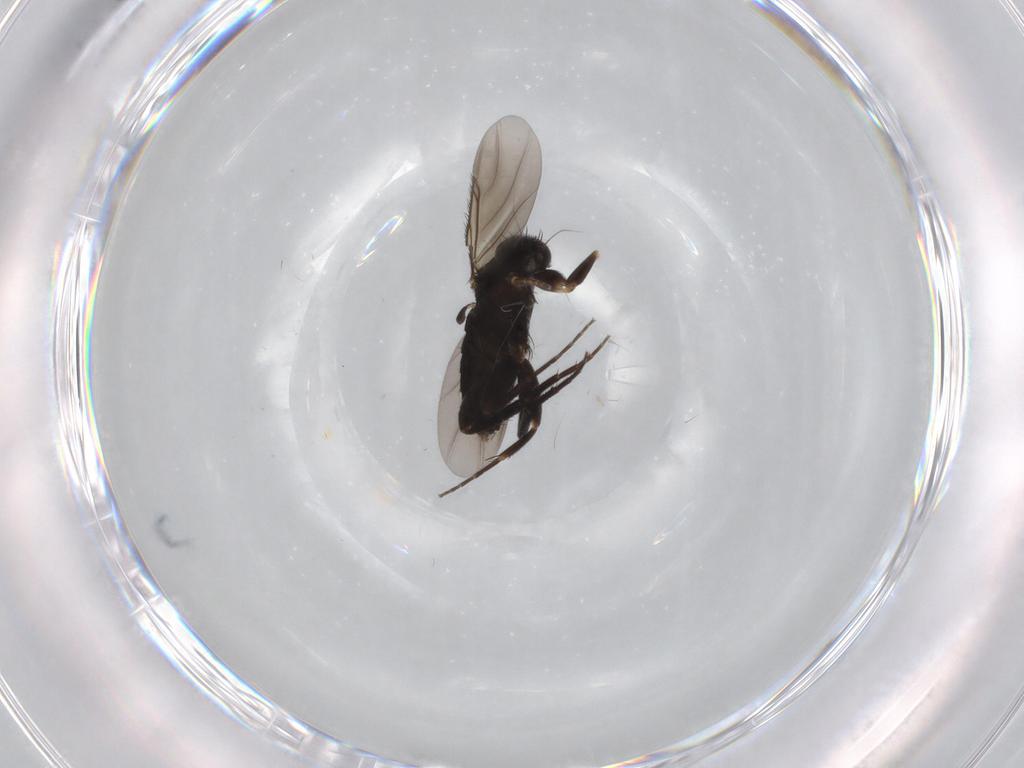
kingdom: Animalia
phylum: Arthropoda
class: Insecta
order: Diptera
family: Phoridae
